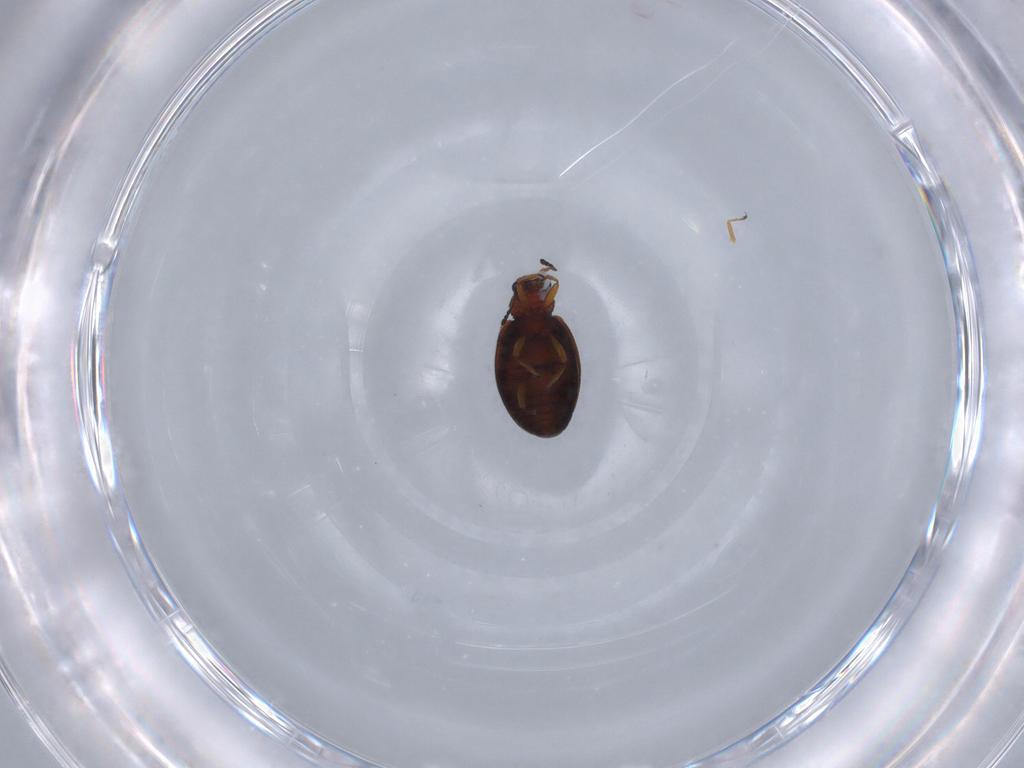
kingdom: Animalia
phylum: Arthropoda
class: Insecta
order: Coleoptera
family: Latridiidae
